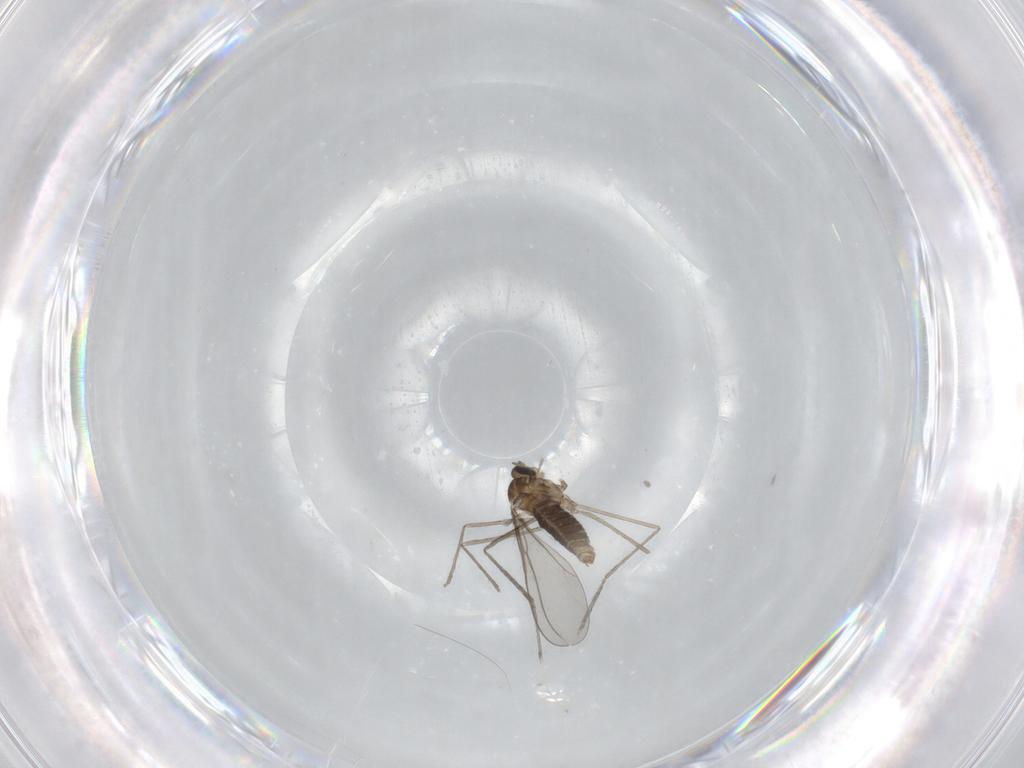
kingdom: Animalia
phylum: Arthropoda
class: Insecta
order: Diptera
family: Cecidomyiidae
